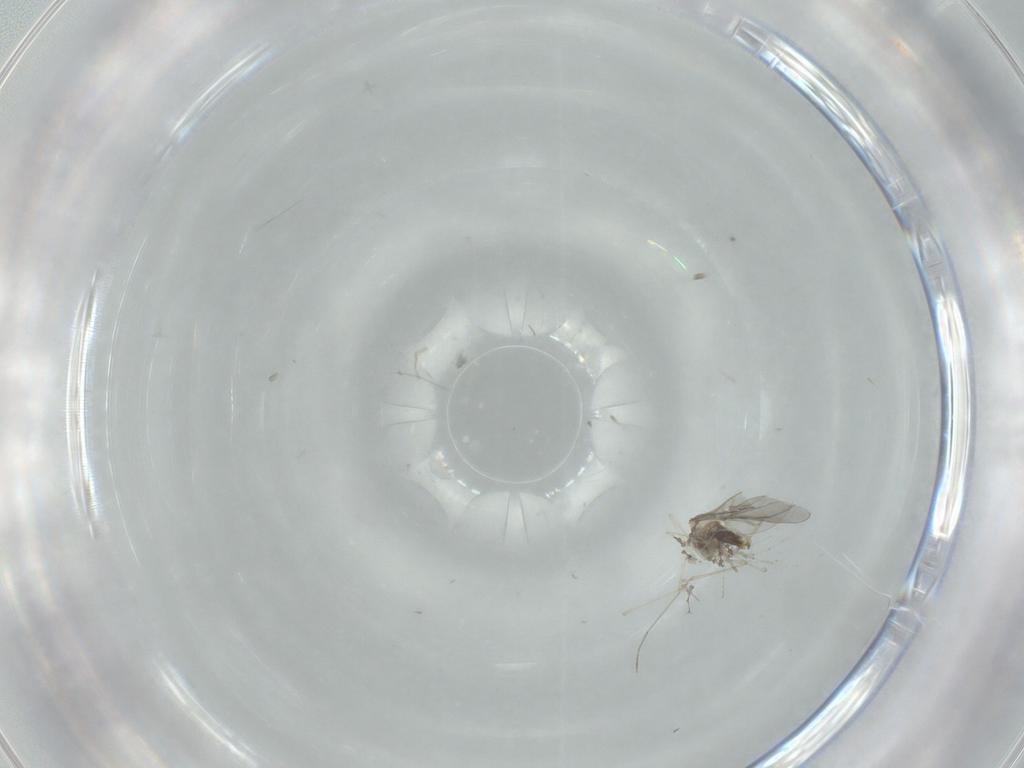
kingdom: Animalia
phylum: Arthropoda
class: Insecta
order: Diptera
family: Cecidomyiidae
